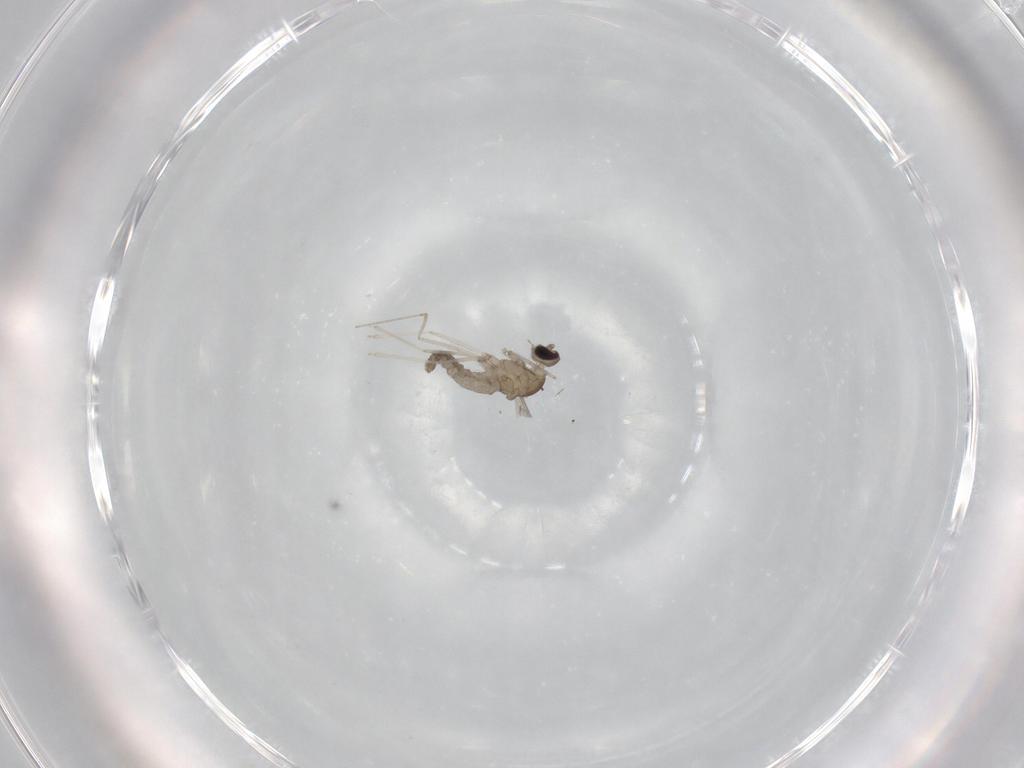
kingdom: Animalia
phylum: Arthropoda
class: Insecta
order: Diptera
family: Cecidomyiidae
